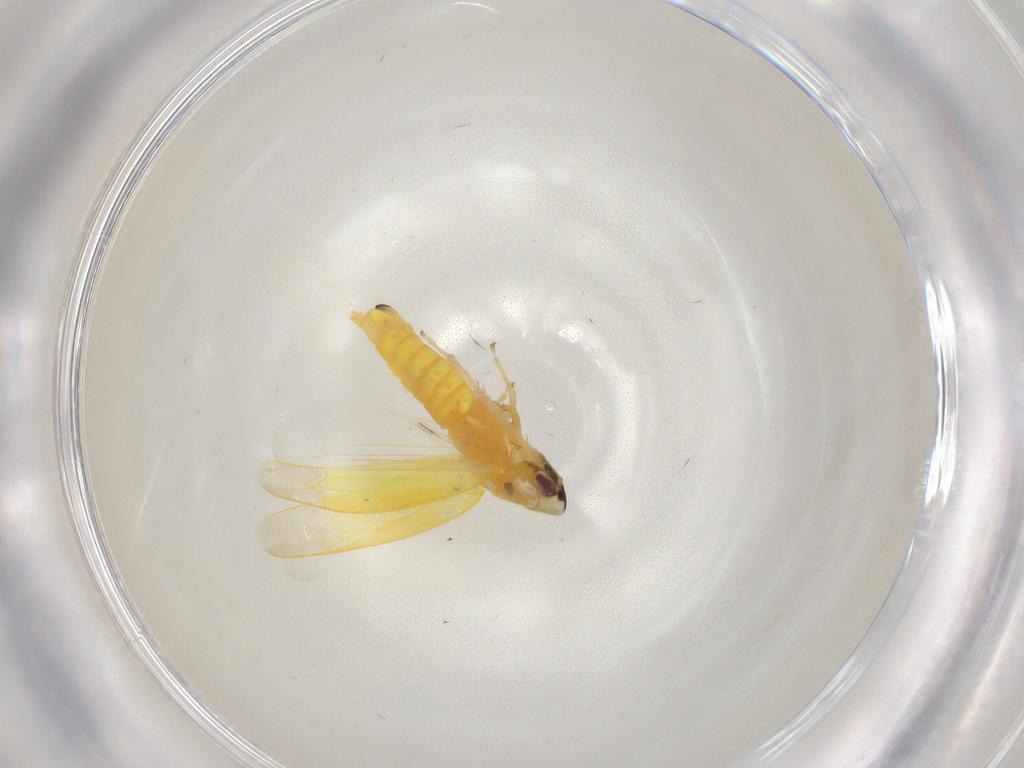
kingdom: Animalia
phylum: Arthropoda
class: Insecta
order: Hemiptera
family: Cicadellidae
